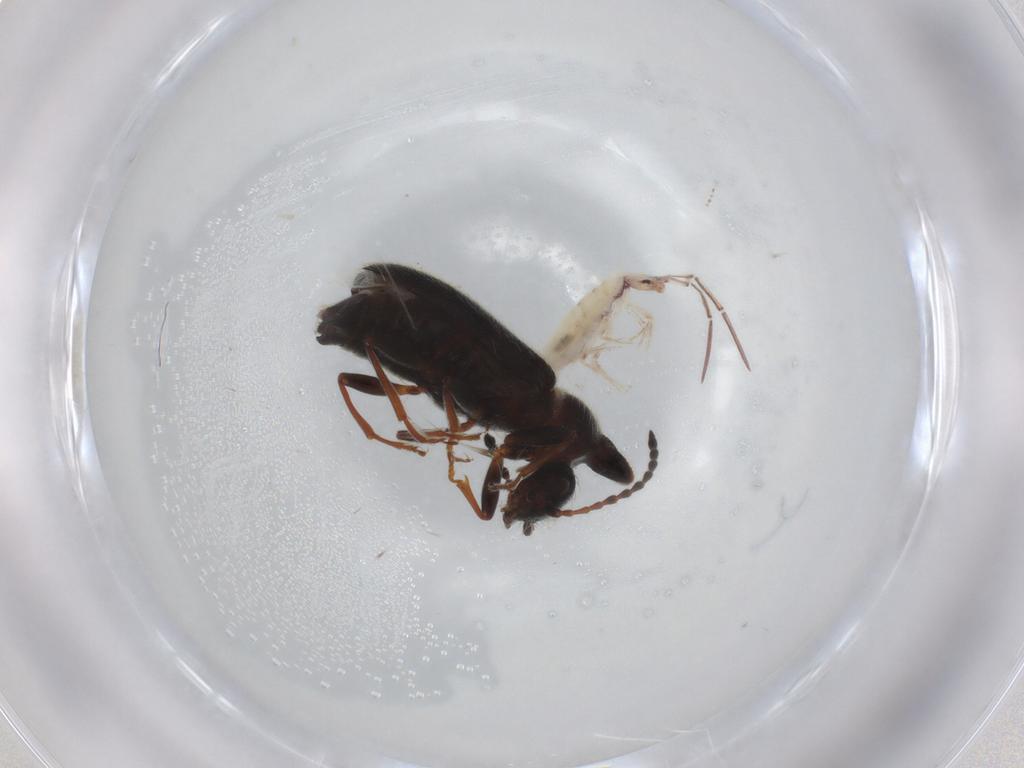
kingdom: Animalia
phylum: Arthropoda
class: Insecta
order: Coleoptera
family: Anthicidae
